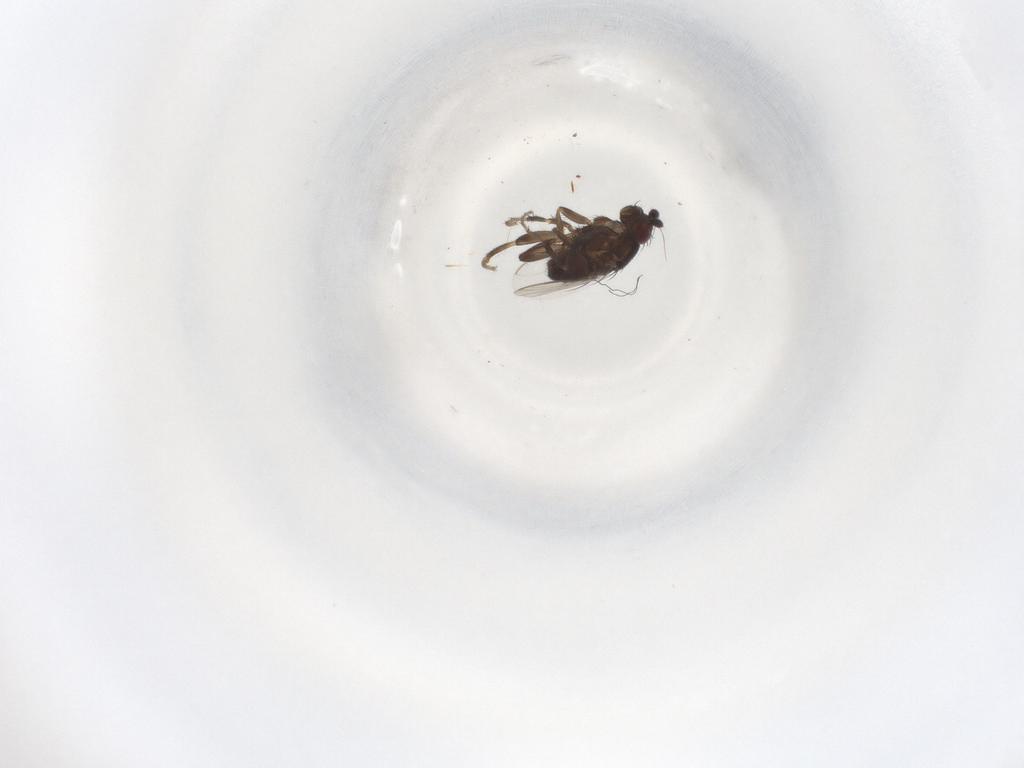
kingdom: Animalia
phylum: Arthropoda
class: Insecta
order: Diptera
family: Sphaeroceridae
